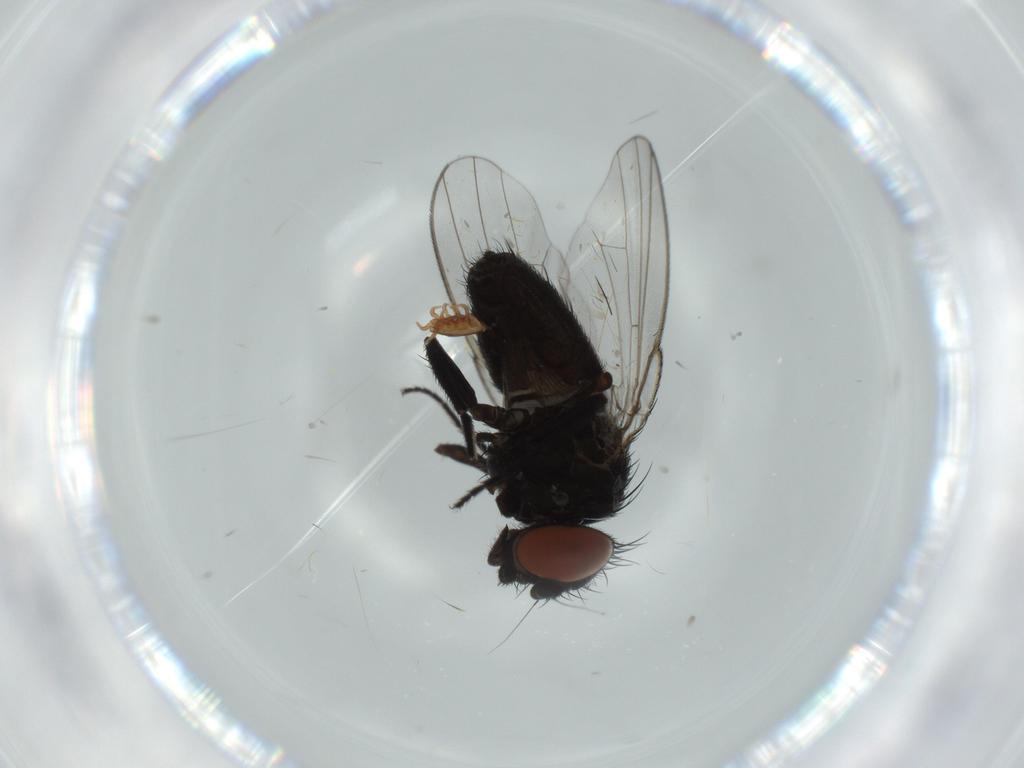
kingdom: Animalia
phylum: Arthropoda
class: Insecta
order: Diptera
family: Dolichopodidae
